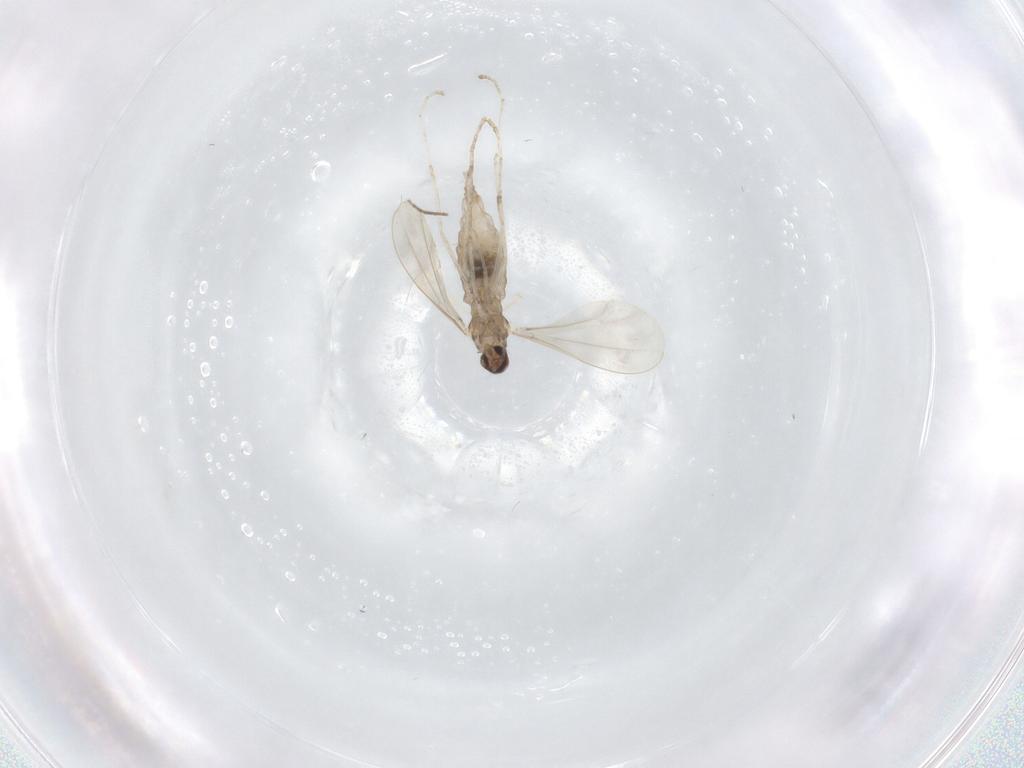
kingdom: Animalia
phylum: Arthropoda
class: Insecta
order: Diptera
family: Cecidomyiidae
